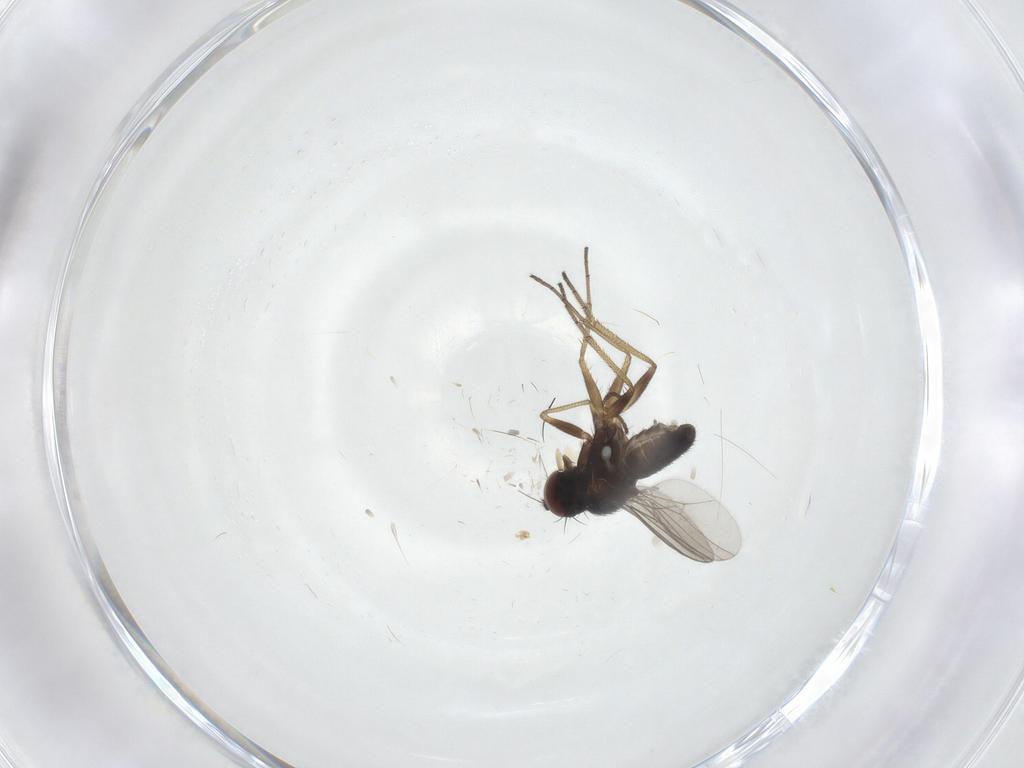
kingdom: Animalia
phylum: Arthropoda
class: Insecta
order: Diptera
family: Dolichopodidae
